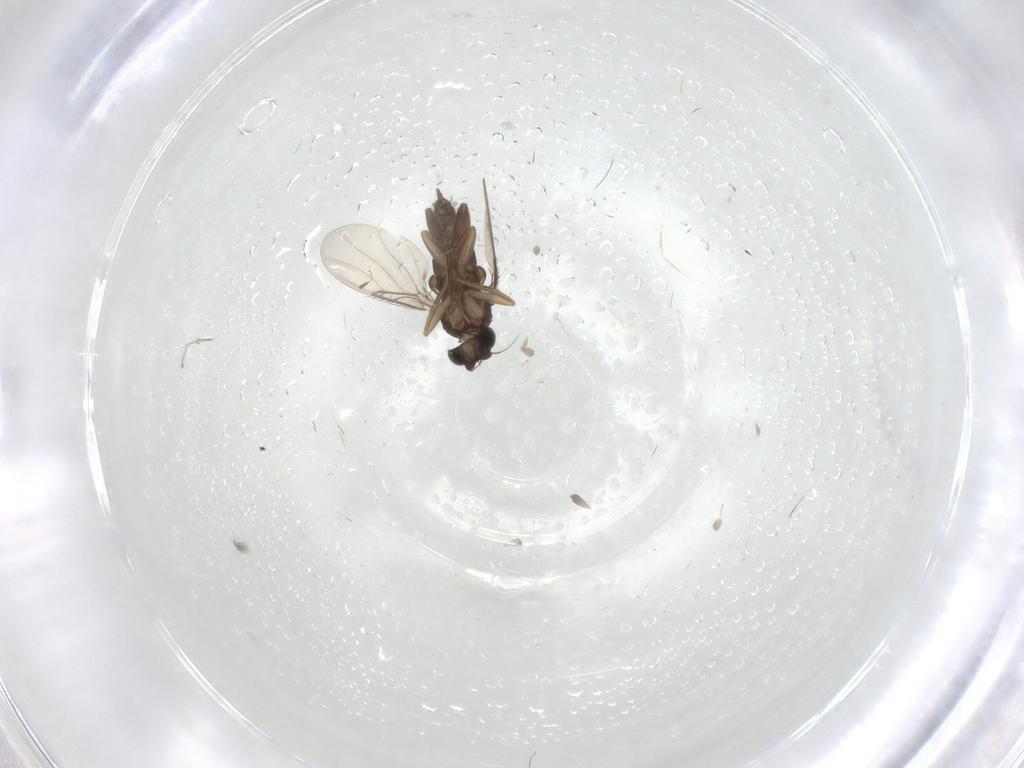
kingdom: Animalia
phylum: Arthropoda
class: Insecta
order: Diptera
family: Phoridae
